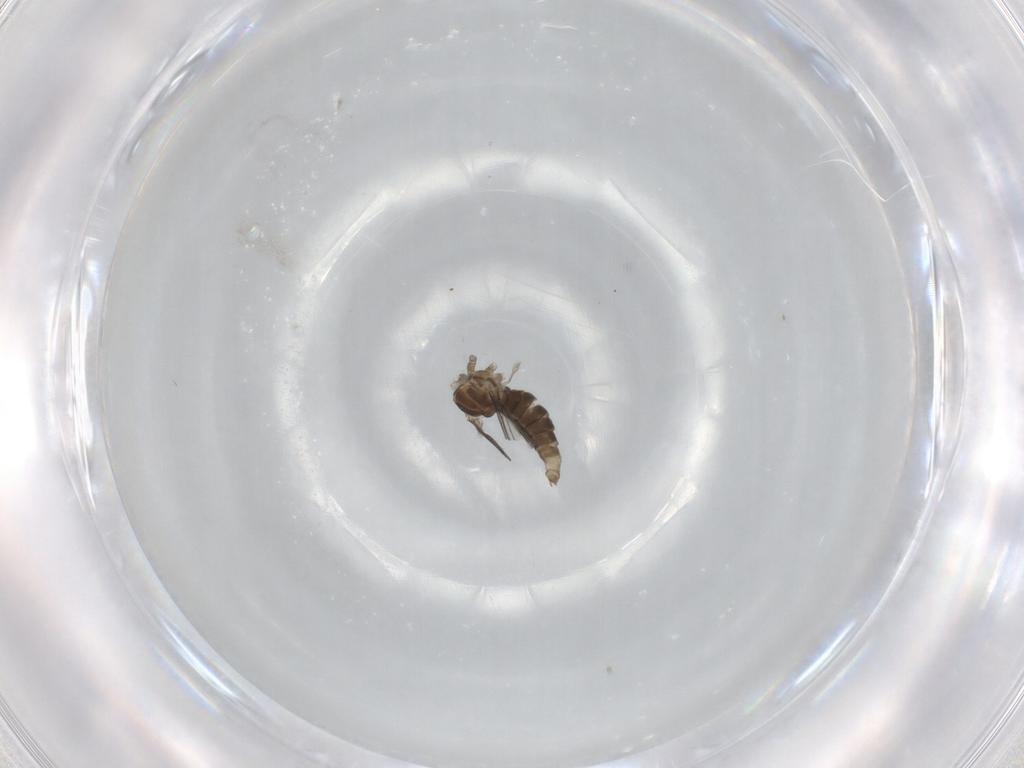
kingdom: Animalia
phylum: Arthropoda
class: Insecta
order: Diptera
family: Cecidomyiidae
